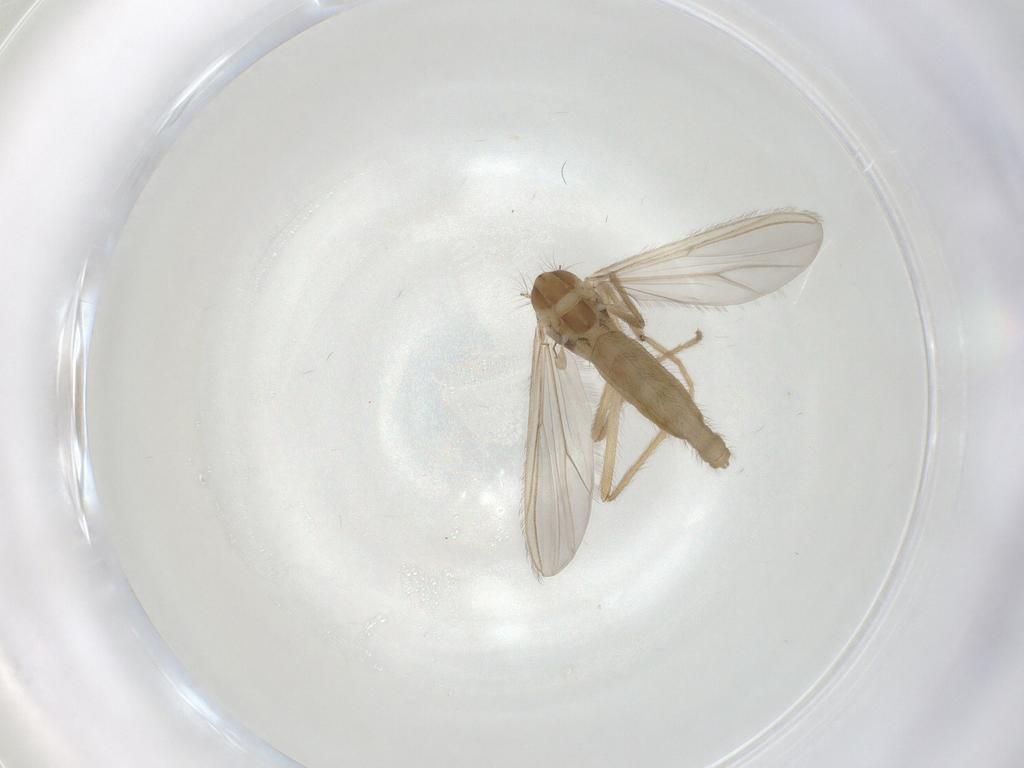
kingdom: Animalia
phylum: Arthropoda
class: Insecta
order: Diptera
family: Chironomidae
